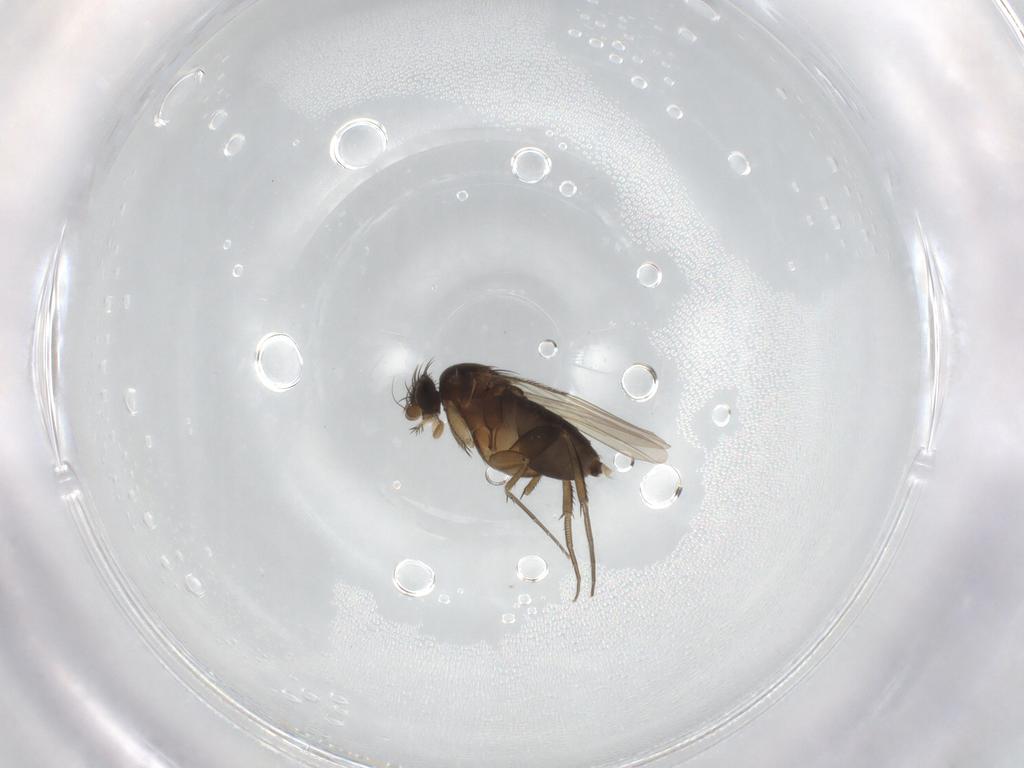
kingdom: Animalia
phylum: Arthropoda
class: Insecta
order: Diptera
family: Phoridae
